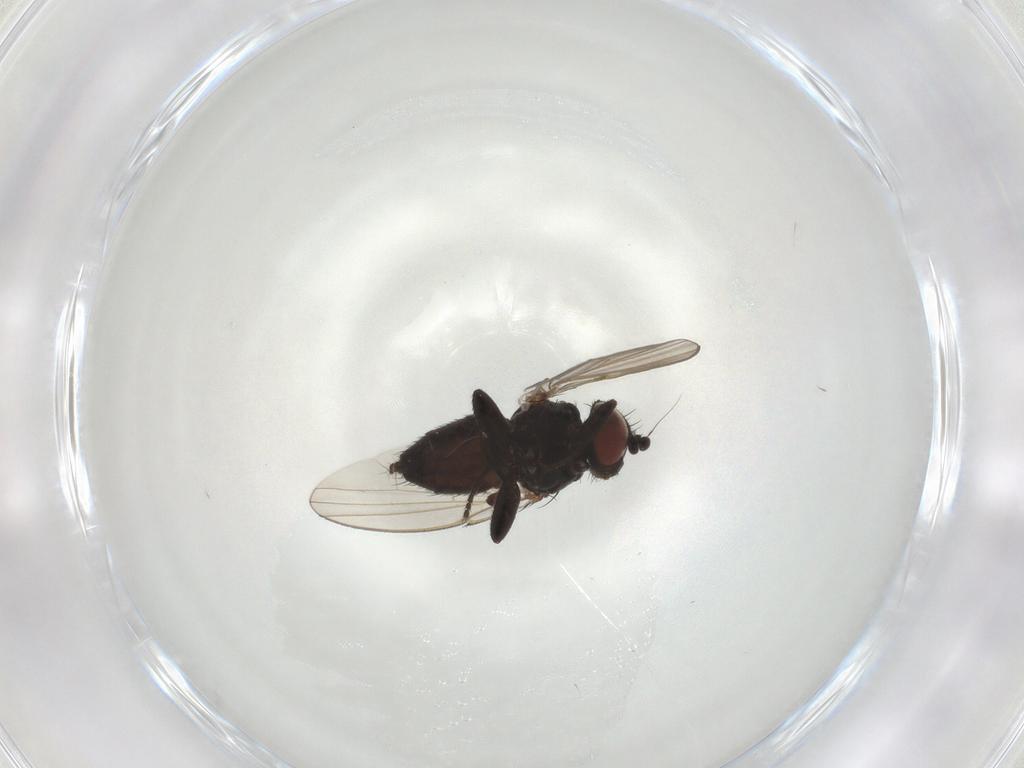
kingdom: Animalia
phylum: Arthropoda
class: Insecta
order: Diptera
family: Milichiidae
